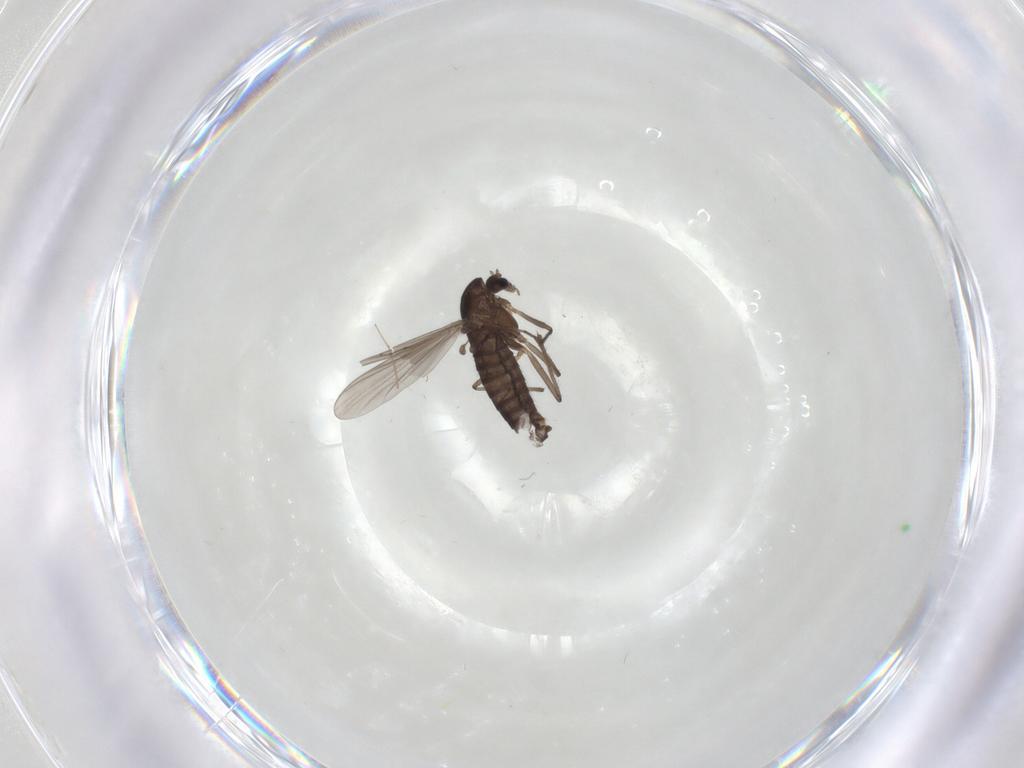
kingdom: Animalia
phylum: Arthropoda
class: Insecta
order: Diptera
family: Chironomidae
